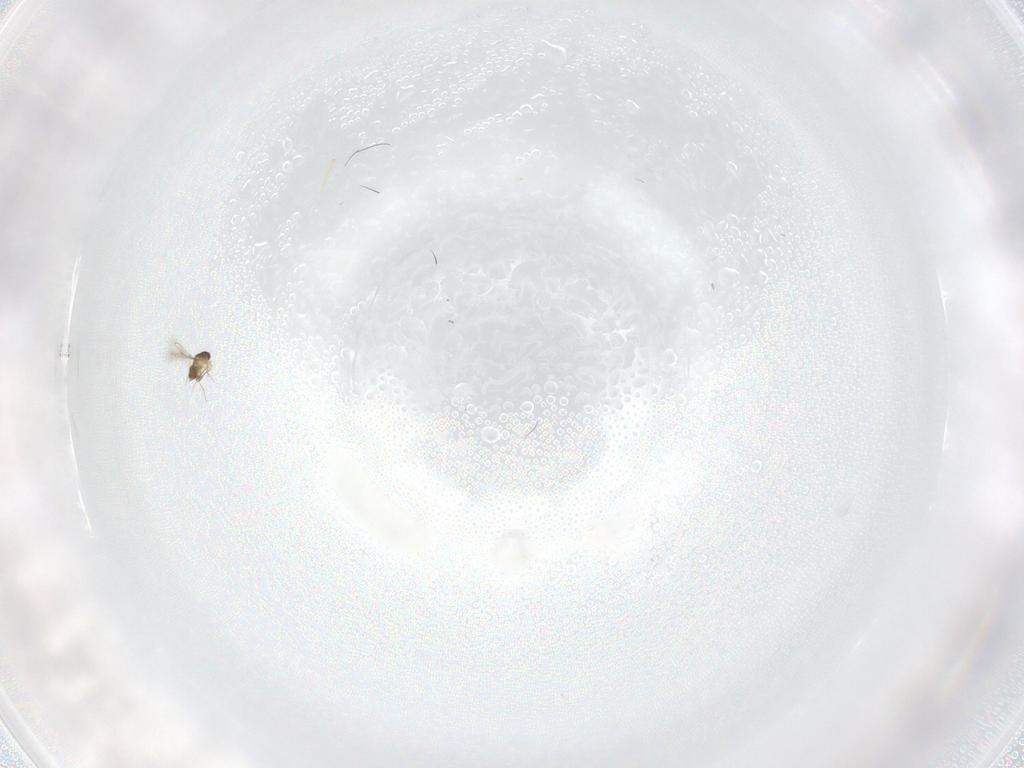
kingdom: Animalia
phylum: Arthropoda
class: Insecta
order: Diptera
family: Cecidomyiidae
